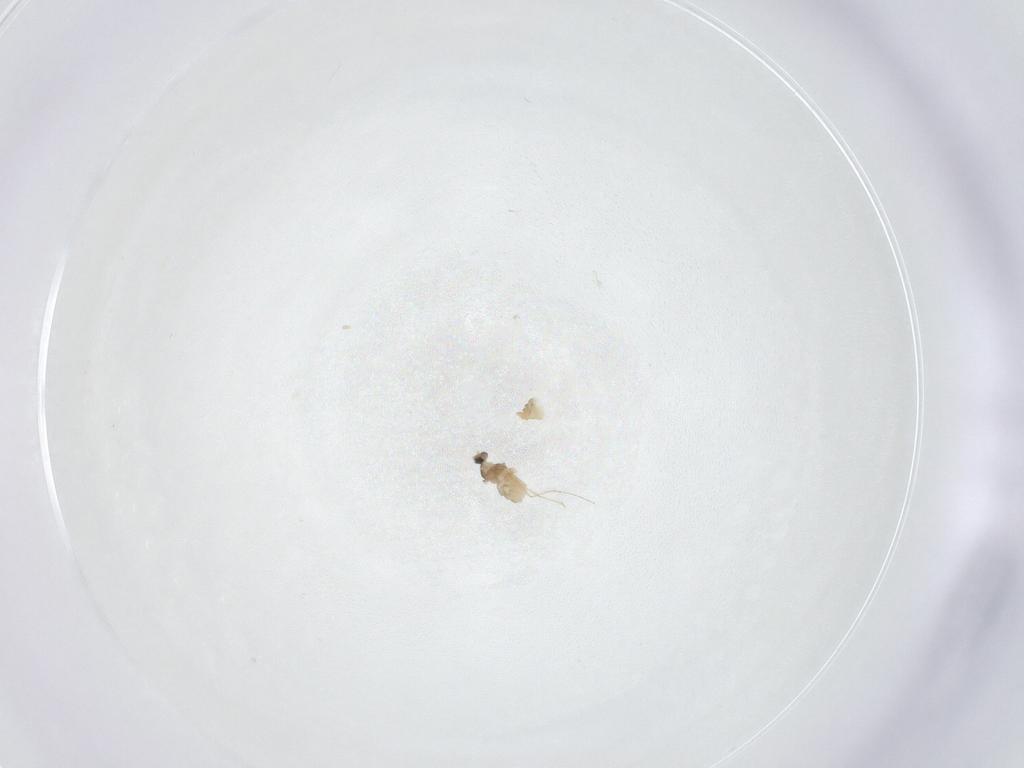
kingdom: Animalia
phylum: Arthropoda
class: Insecta
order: Diptera
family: Cecidomyiidae
